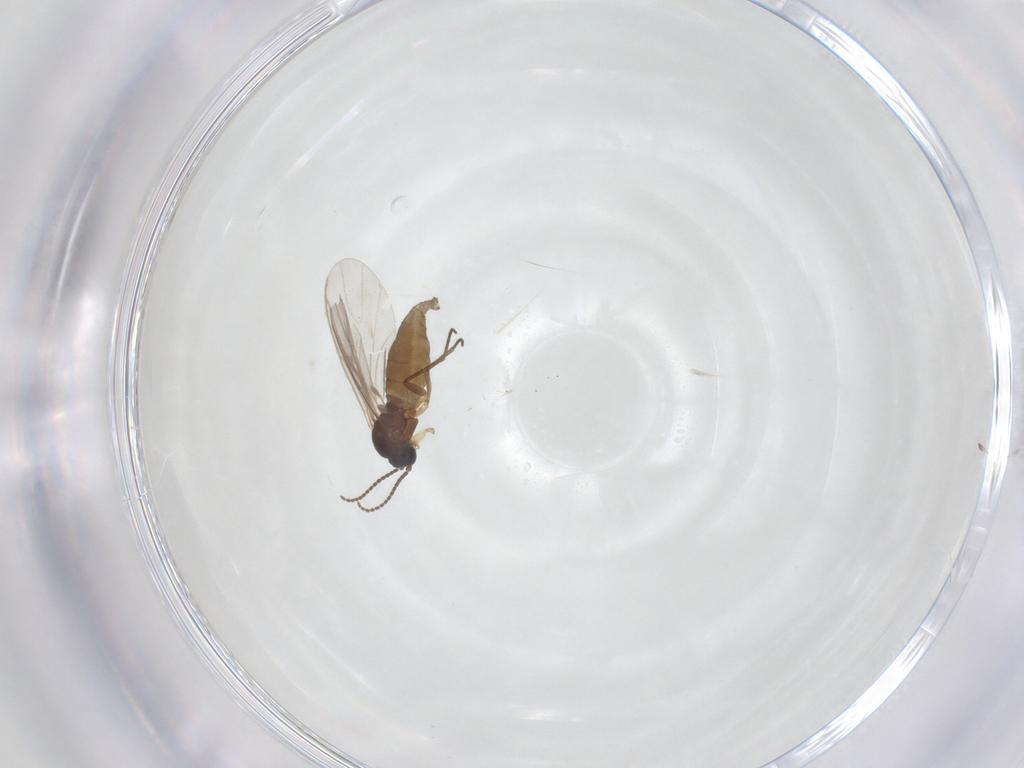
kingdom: Animalia
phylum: Arthropoda
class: Insecta
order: Diptera
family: Sciaridae
